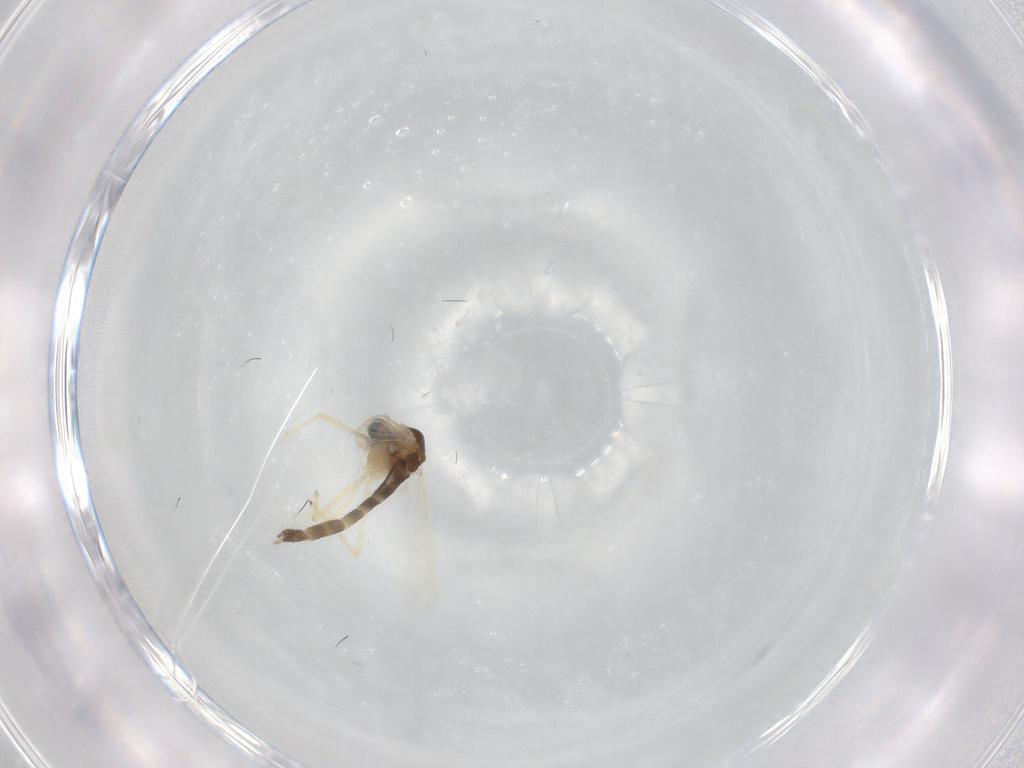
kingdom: Animalia
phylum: Arthropoda
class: Insecta
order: Diptera
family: Chironomidae
